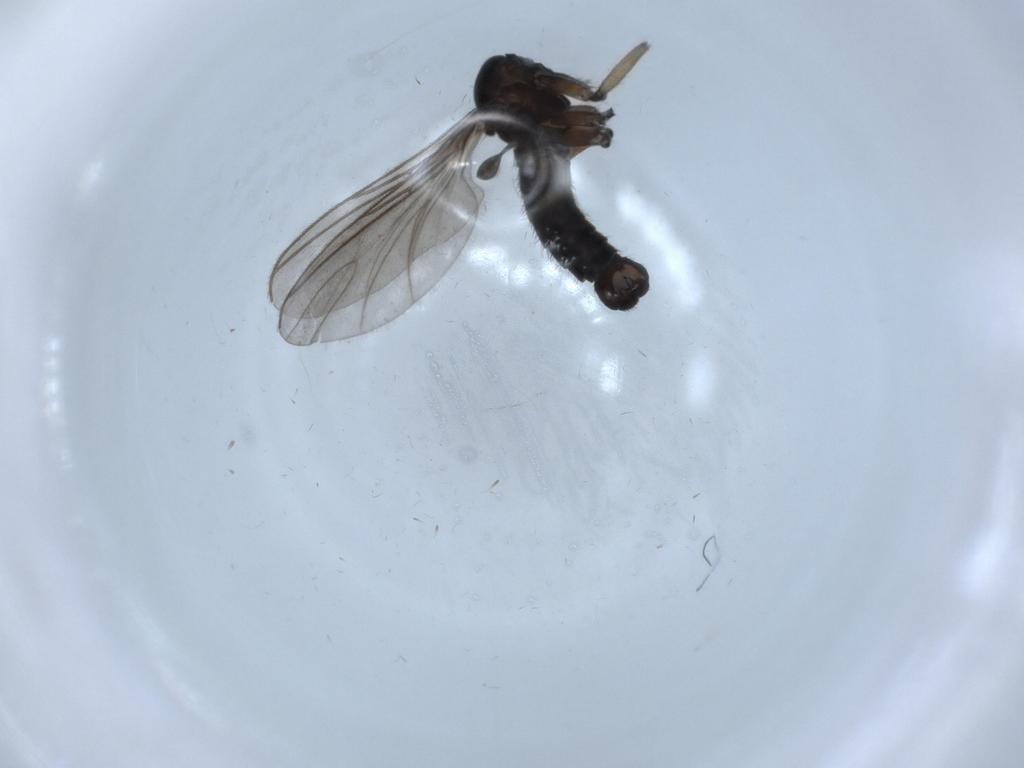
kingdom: Animalia
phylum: Arthropoda
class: Insecta
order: Diptera
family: Sciaridae
